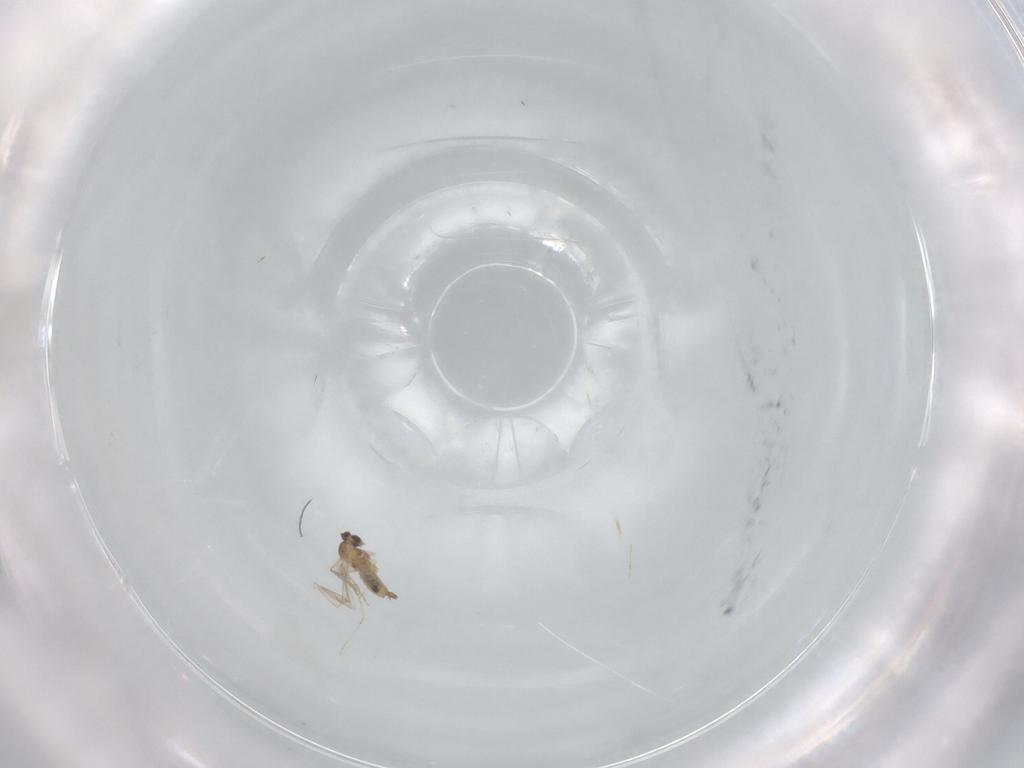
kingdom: Animalia
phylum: Arthropoda
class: Insecta
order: Diptera
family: Cecidomyiidae
